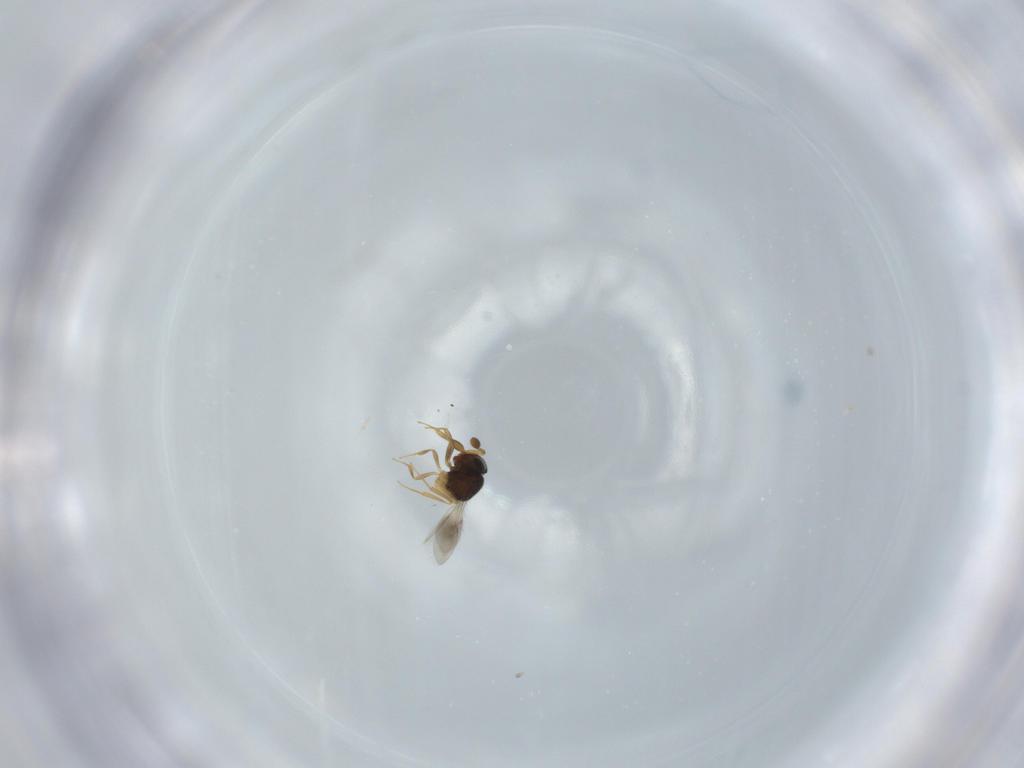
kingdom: Animalia
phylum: Arthropoda
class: Insecta
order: Hymenoptera
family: Scelionidae
